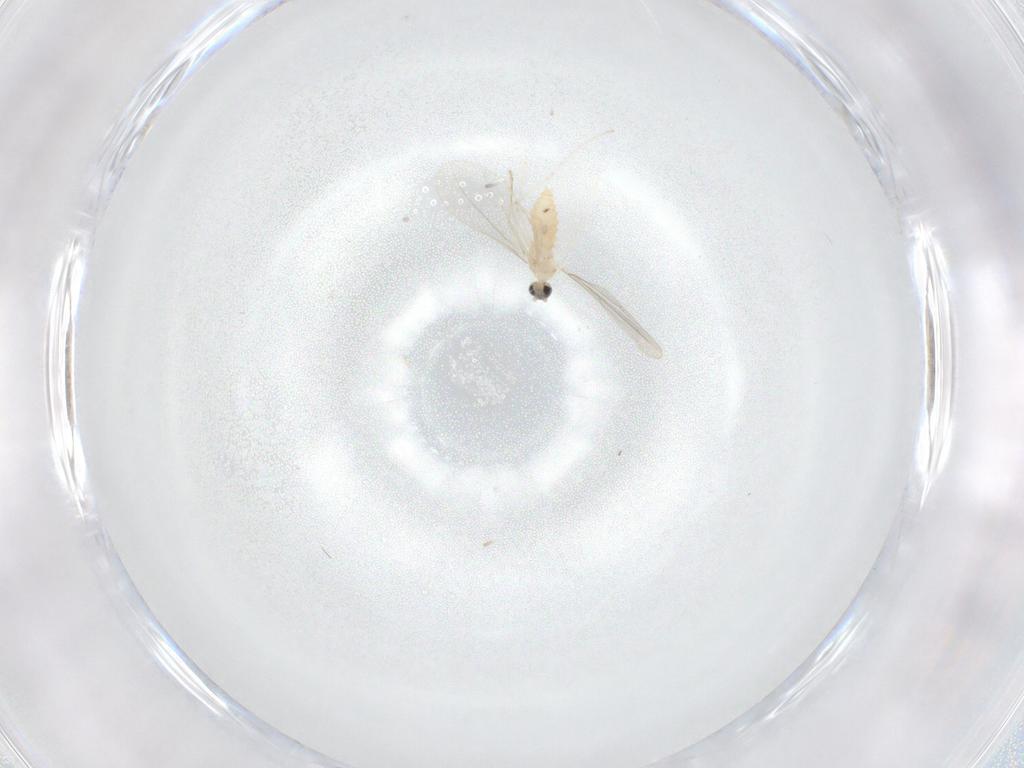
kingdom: Animalia
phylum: Arthropoda
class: Insecta
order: Diptera
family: Cecidomyiidae
